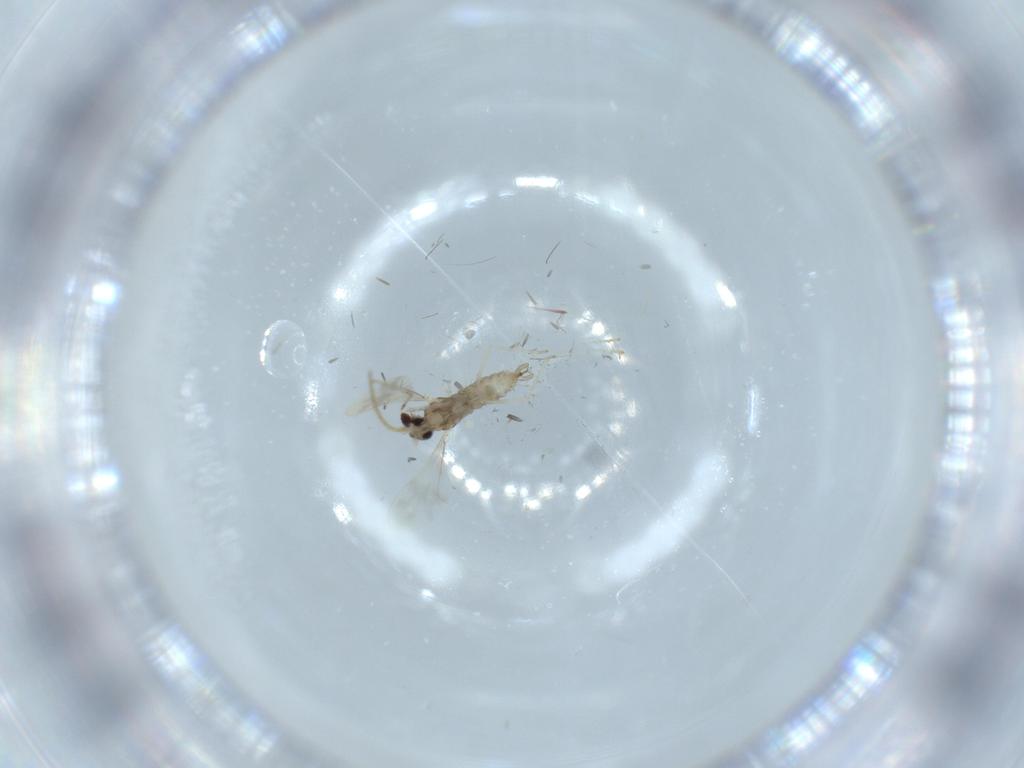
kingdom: Animalia
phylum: Arthropoda
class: Insecta
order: Diptera
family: Cecidomyiidae
